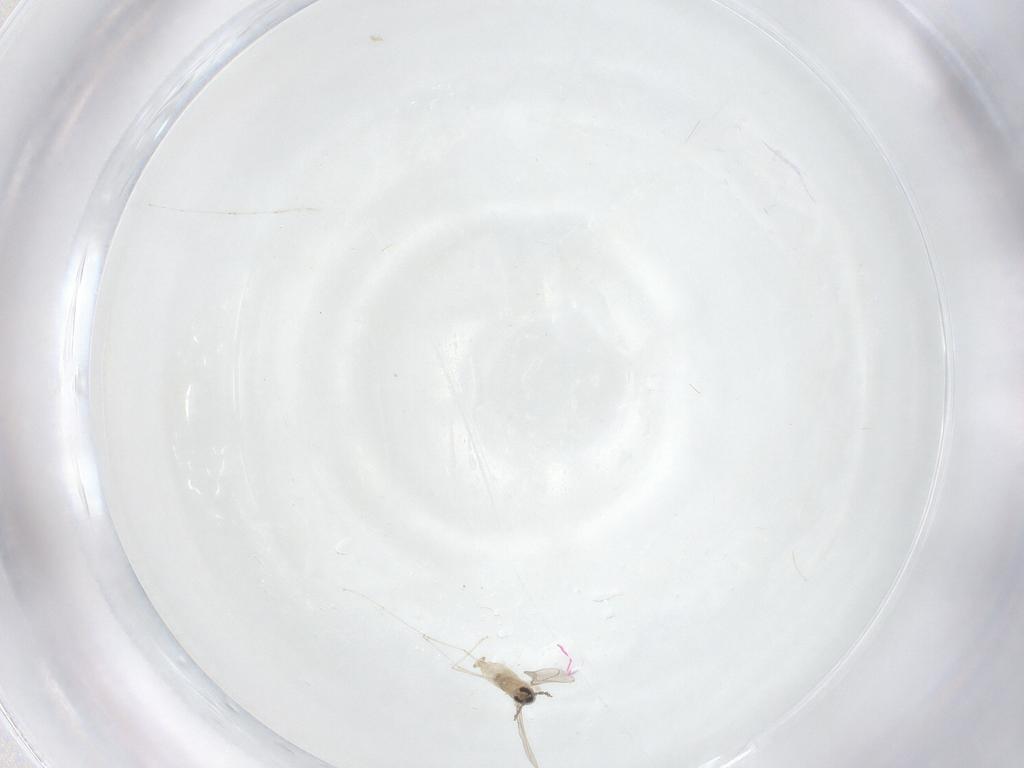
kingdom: Animalia
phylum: Arthropoda
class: Insecta
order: Diptera
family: Cecidomyiidae
